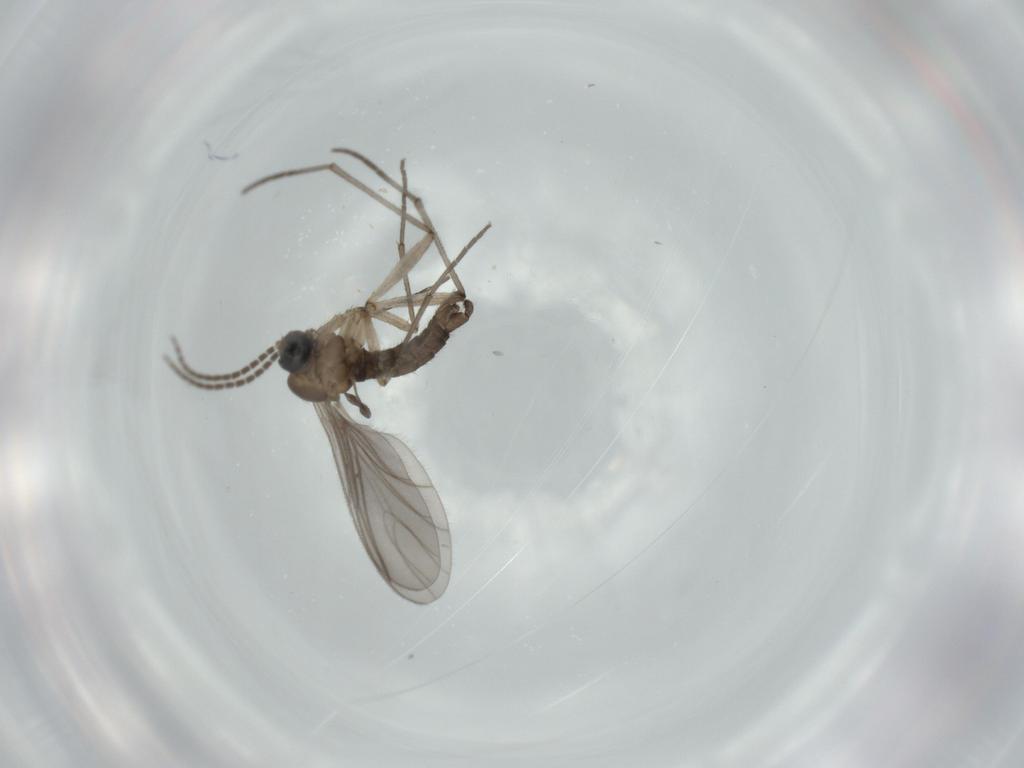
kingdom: Animalia
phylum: Arthropoda
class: Insecta
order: Diptera
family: Sciaridae
